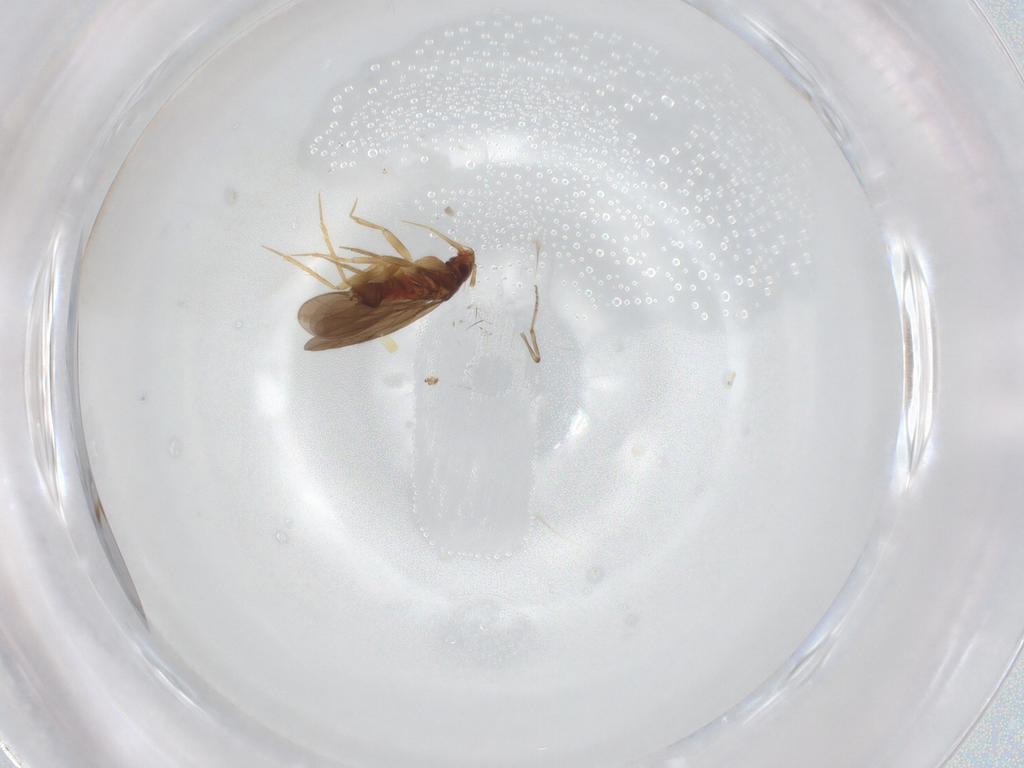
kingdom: Animalia
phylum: Arthropoda
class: Insecta
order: Hemiptera
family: Ceratocombidae
